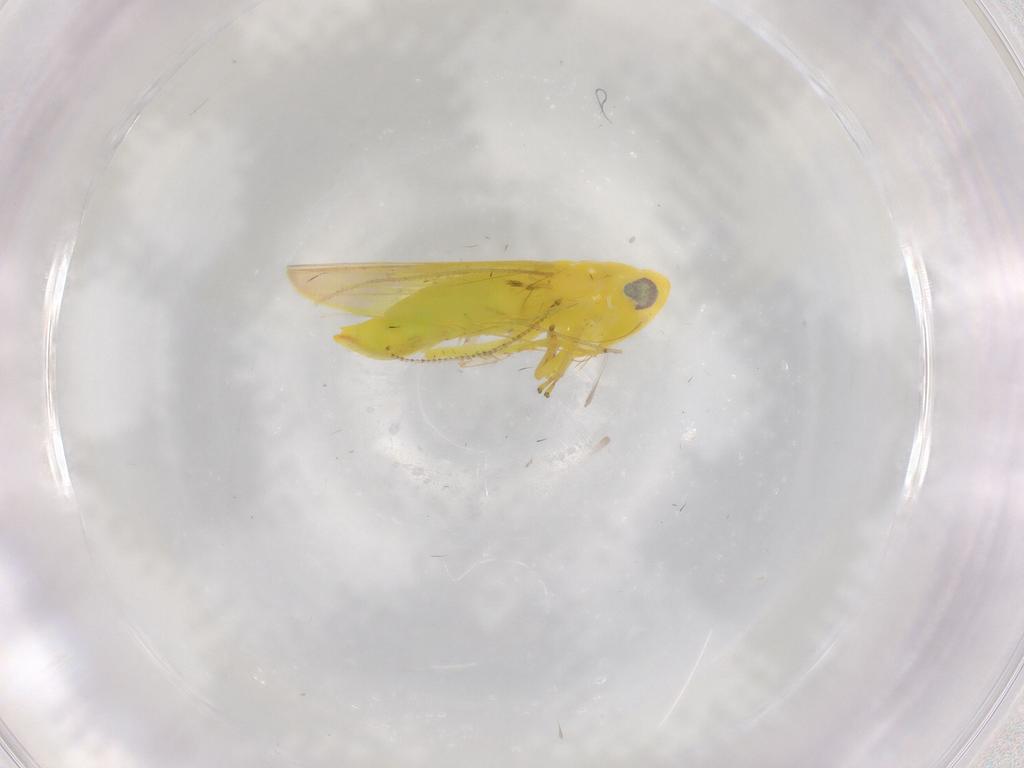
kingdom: Animalia
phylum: Arthropoda
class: Insecta
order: Hemiptera
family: Cicadellidae
